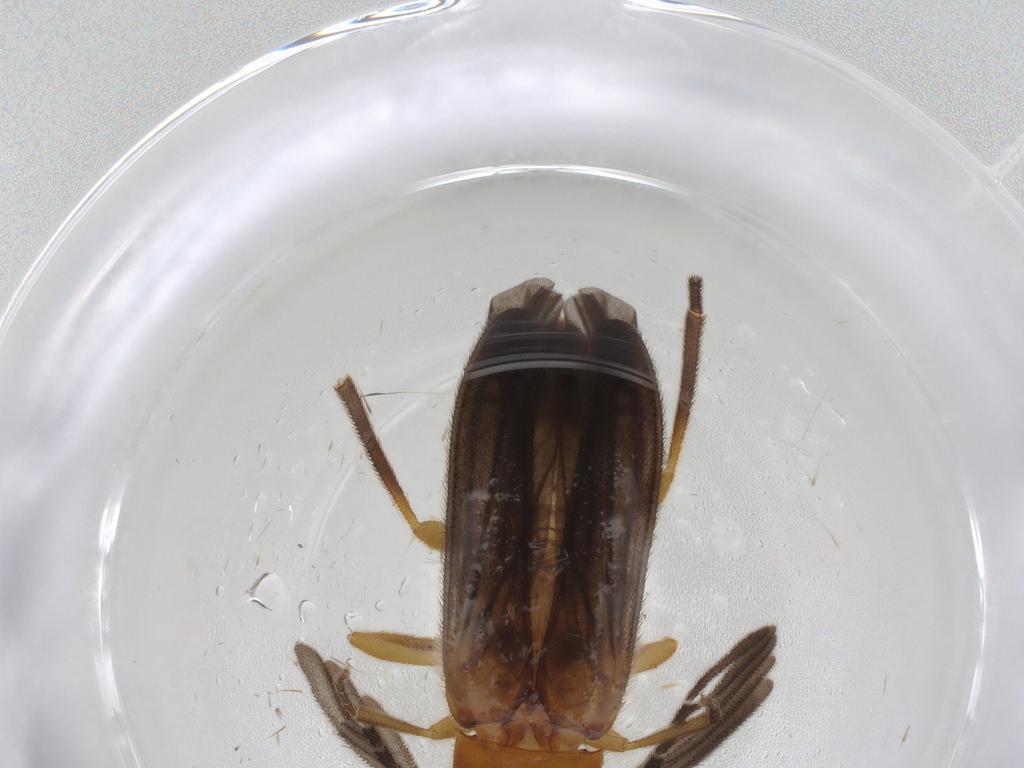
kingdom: Animalia
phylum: Arthropoda
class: Insecta
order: Coleoptera
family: Lampyridae
